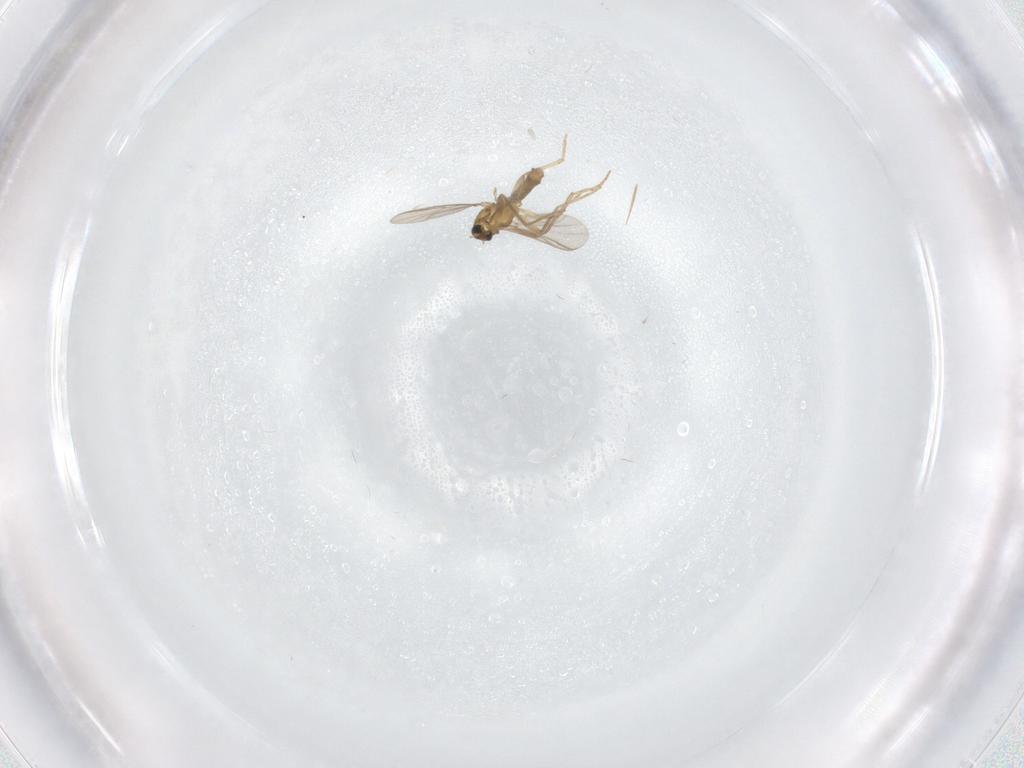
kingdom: Animalia
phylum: Arthropoda
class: Insecta
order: Diptera
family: Chironomidae
